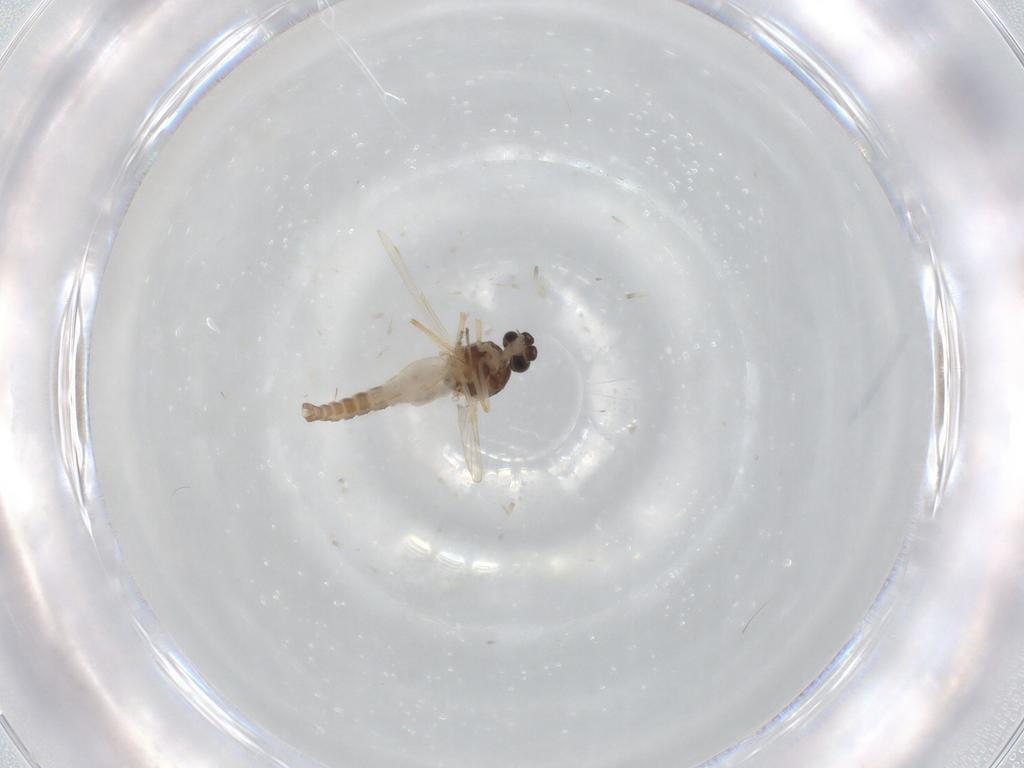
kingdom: Animalia
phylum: Arthropoda
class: Insecta
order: Diptera
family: Ceratopogonidae
